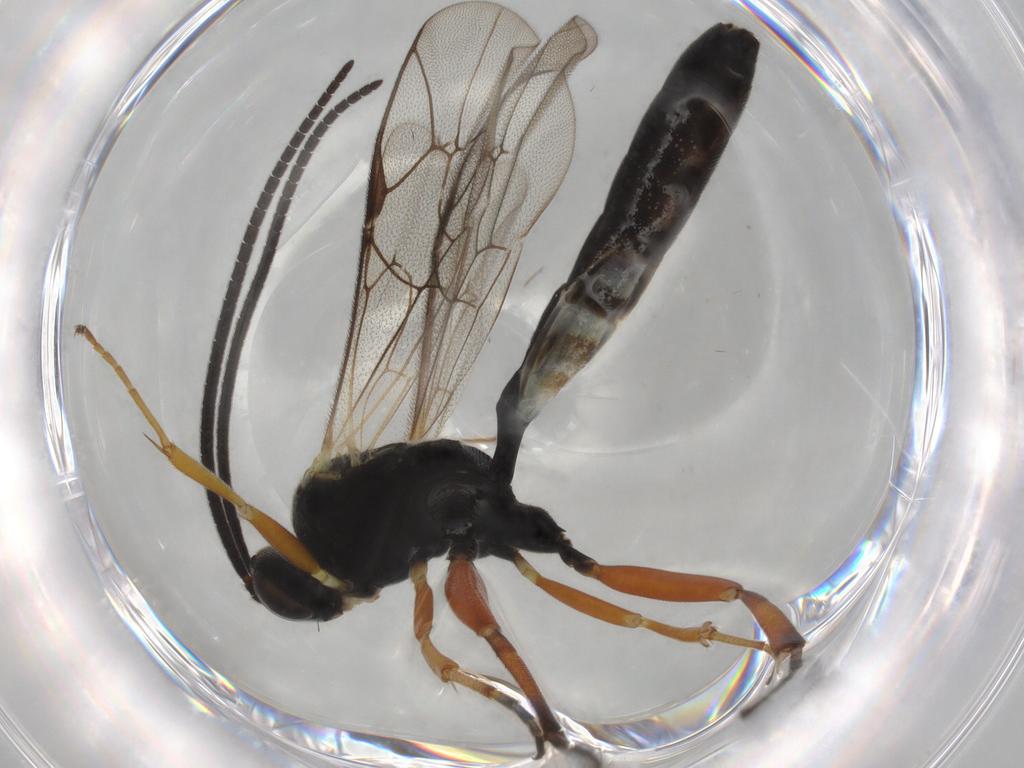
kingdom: Animalia
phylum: Arthropoda
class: Insecta
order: Hymenoptera
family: Ichneumonidae
